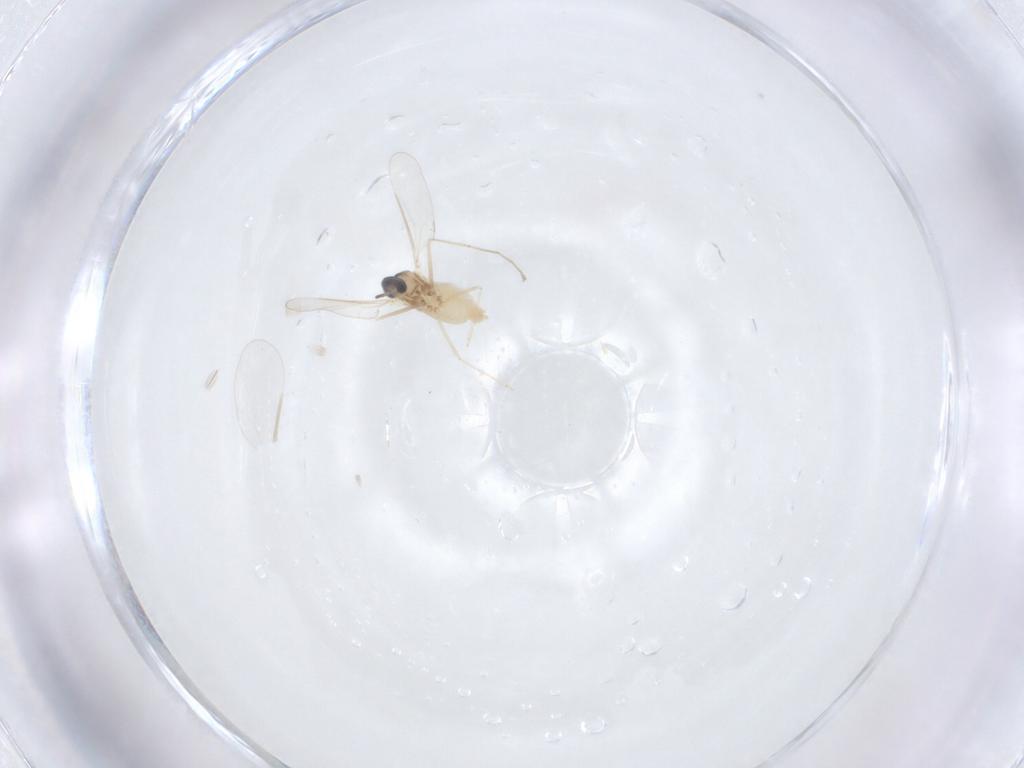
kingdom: Animalia
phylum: Arthropoda
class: Insecta
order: Diptera
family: Cecidomyiidae
